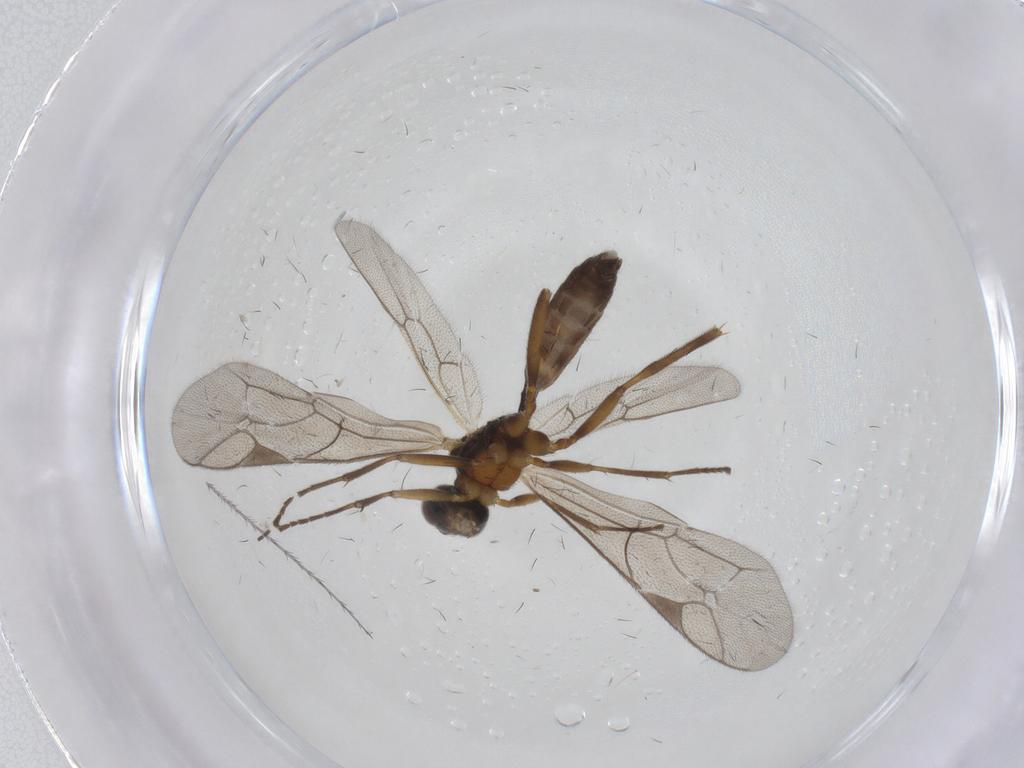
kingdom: Animalia
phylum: Arthropoda
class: Insecta
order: Hymenoptera
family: Ichneumonidae
